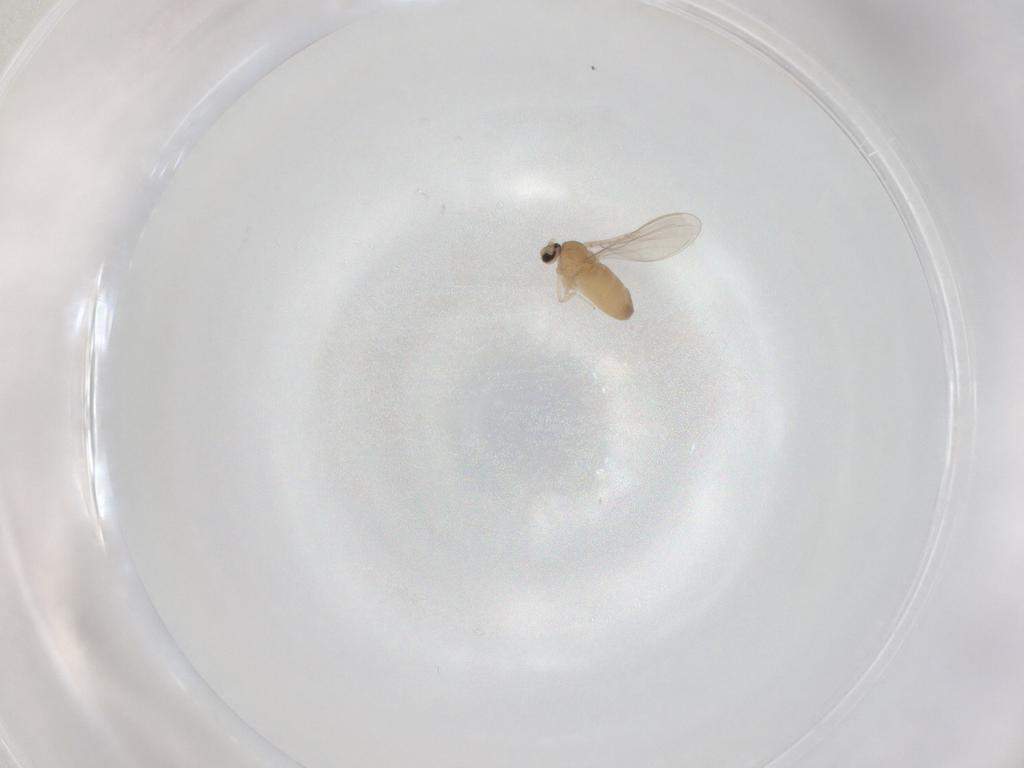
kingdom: Animalia
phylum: Arthropoda
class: Insecta
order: Diptera
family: Cecidomyiidae
